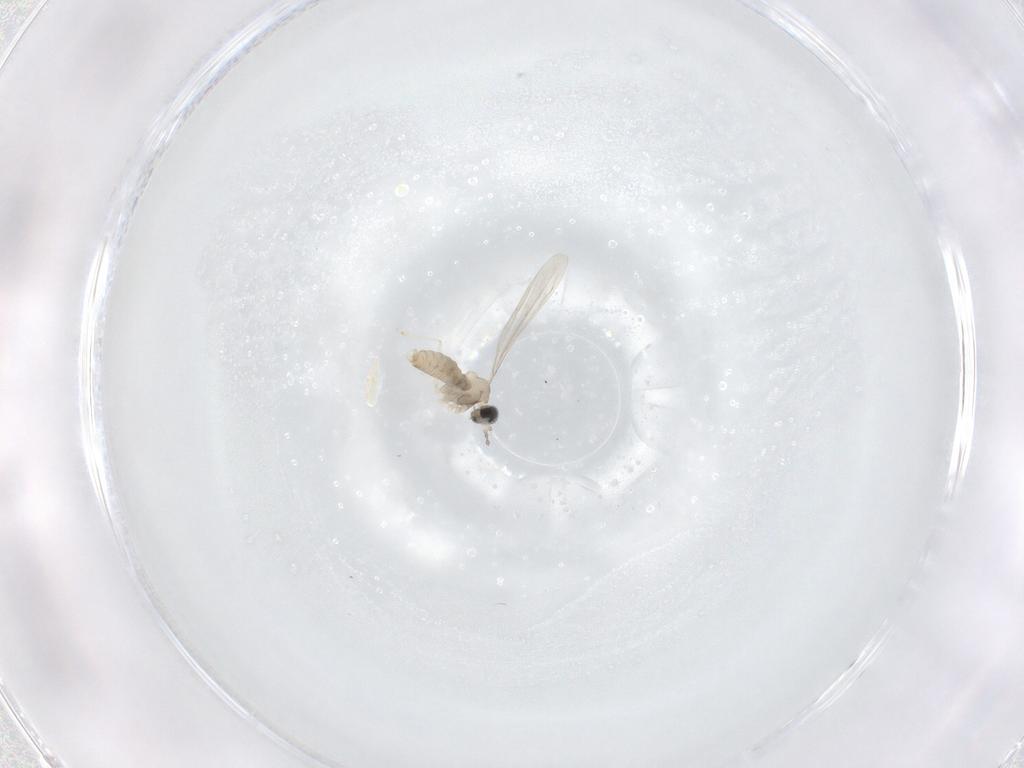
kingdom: Animalia
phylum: Arthropoda
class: Insecta
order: Diptera
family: Cecidomyiidae
